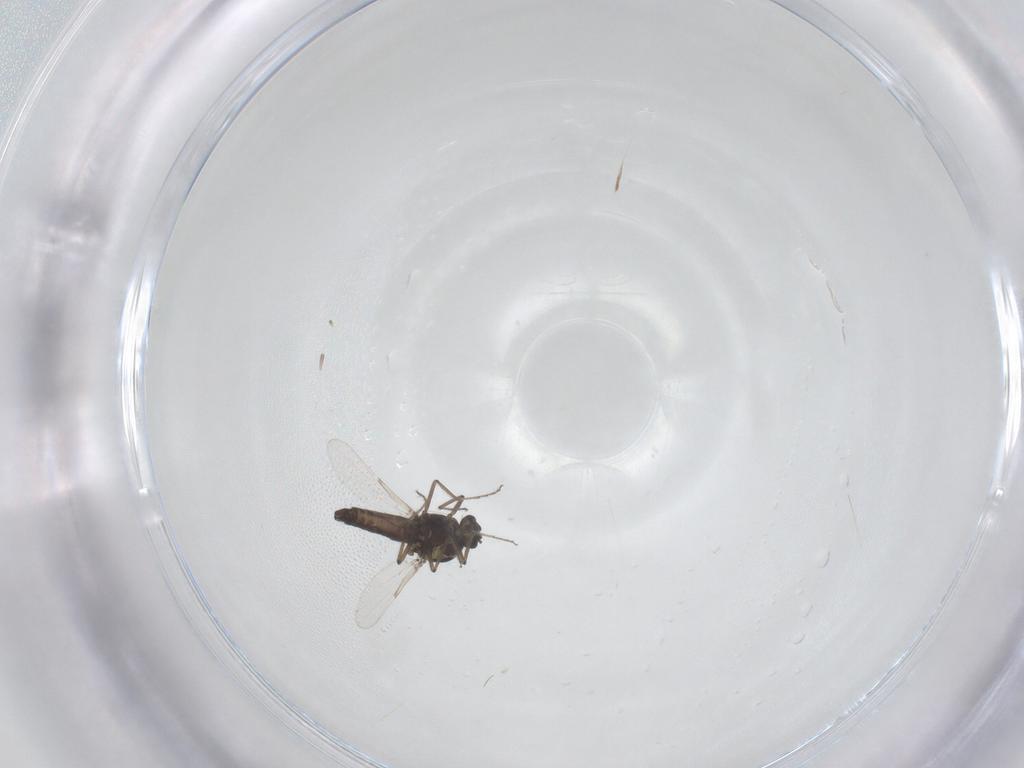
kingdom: Animalia
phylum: Arthropoda
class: Insecta
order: Diptera
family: Ceratopogonidae
